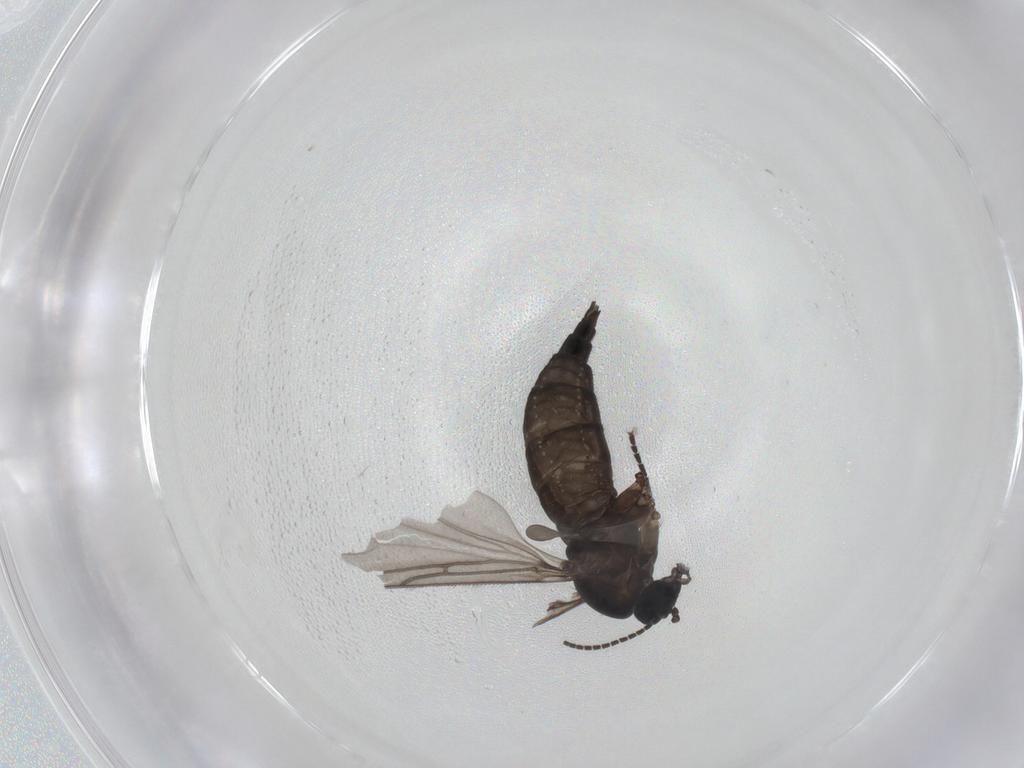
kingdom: Animalia
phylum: Arthropoda
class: Insecta
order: Diptera
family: Sciaridae
